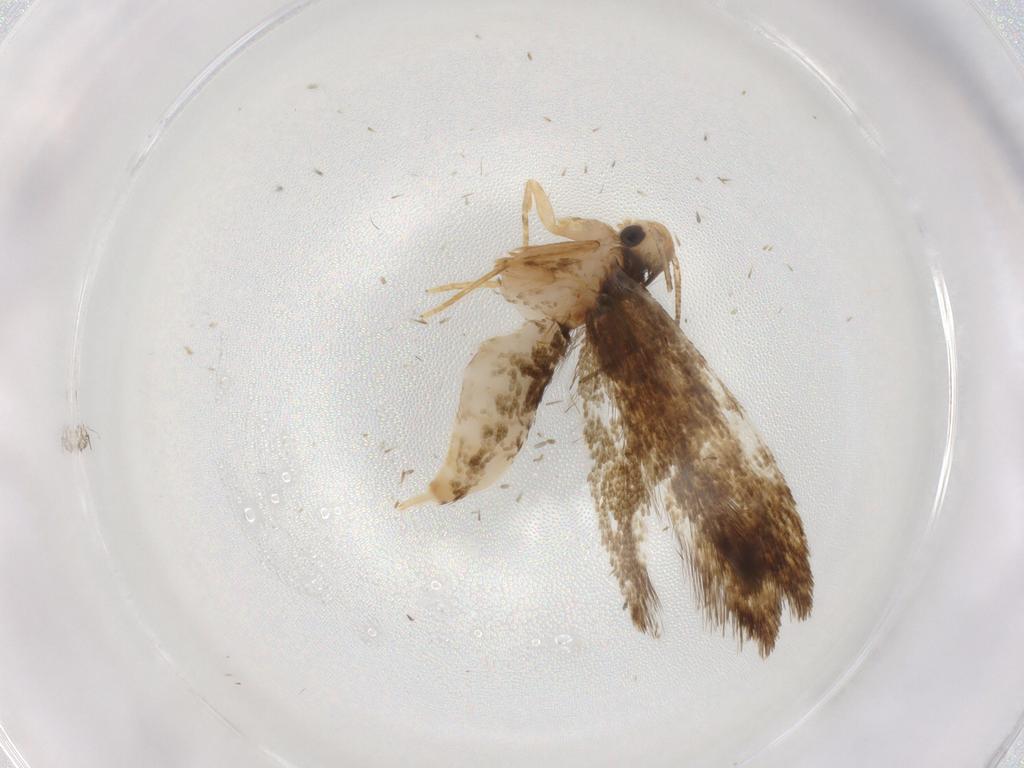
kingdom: Animalia
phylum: Arthropoda
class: Insecta
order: Lepidoptera
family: Tineidae
